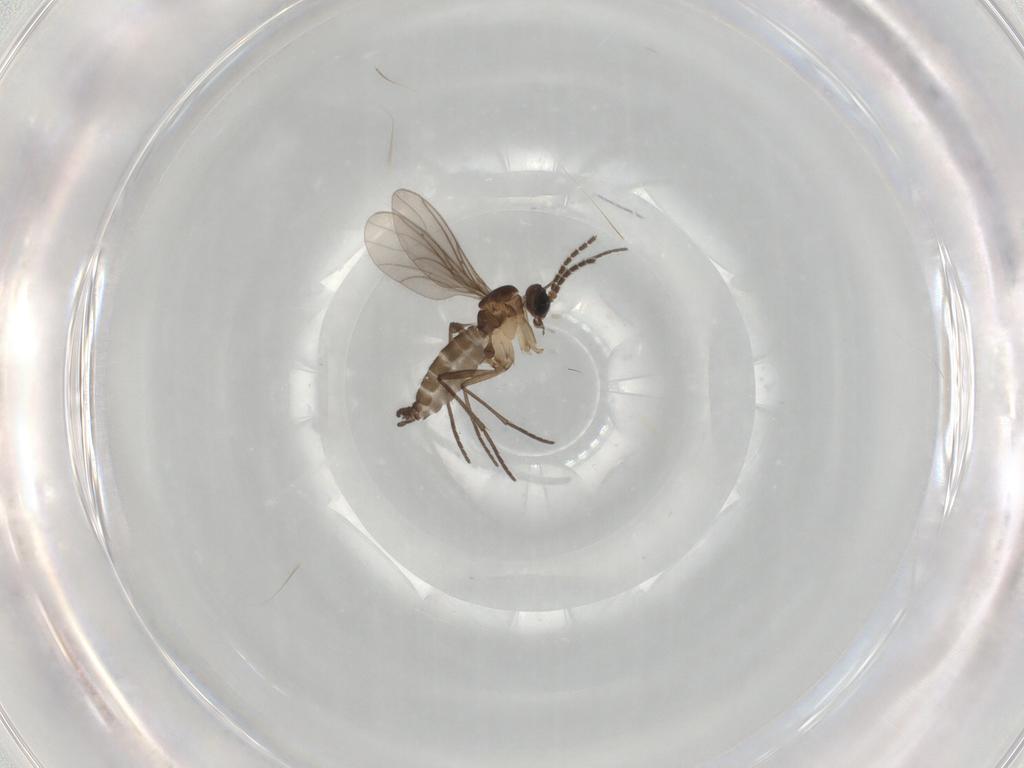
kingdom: Animalia
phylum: Arthropoda
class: Insecta
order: Diptera
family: Sciaridae
